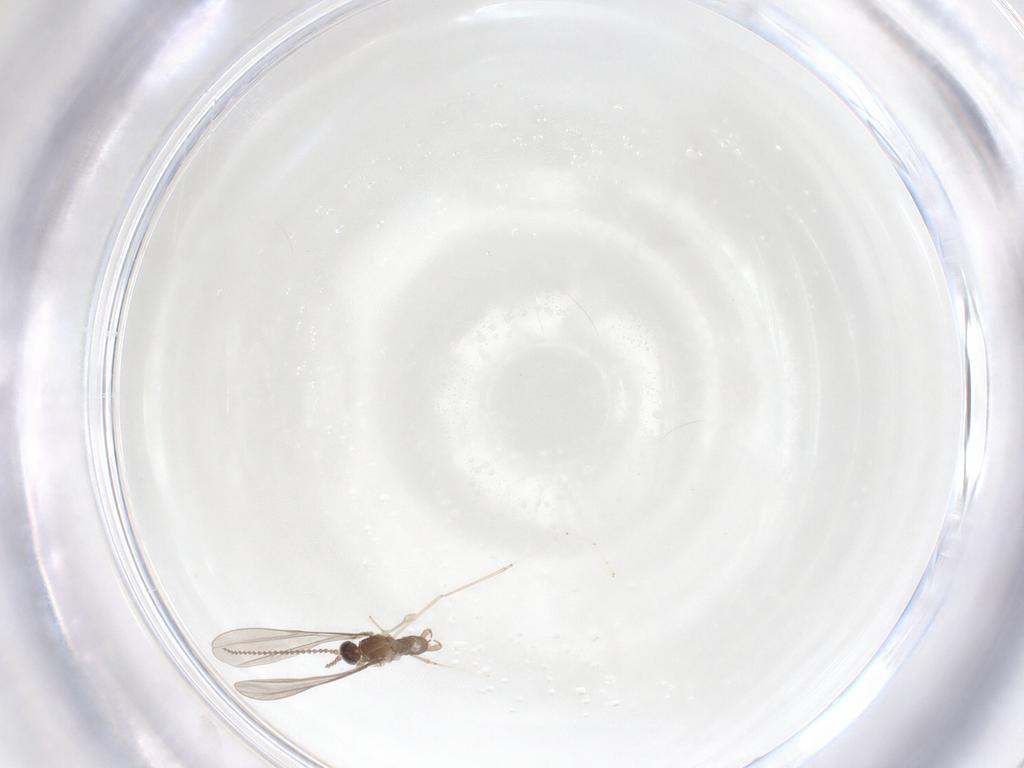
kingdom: Animalia
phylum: Arthropoda
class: Insecta
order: Diptera
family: Cecidomyiidae
